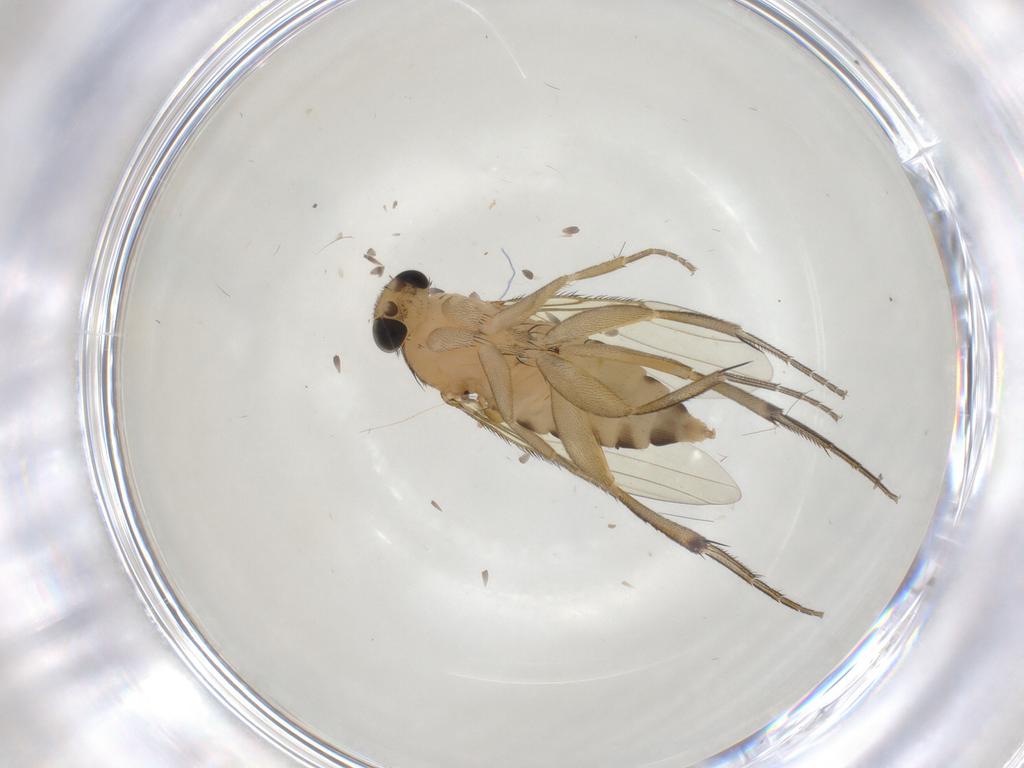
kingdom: Animalia
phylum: Arthropoda
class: Insecta
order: Diptera
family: Phoridae
